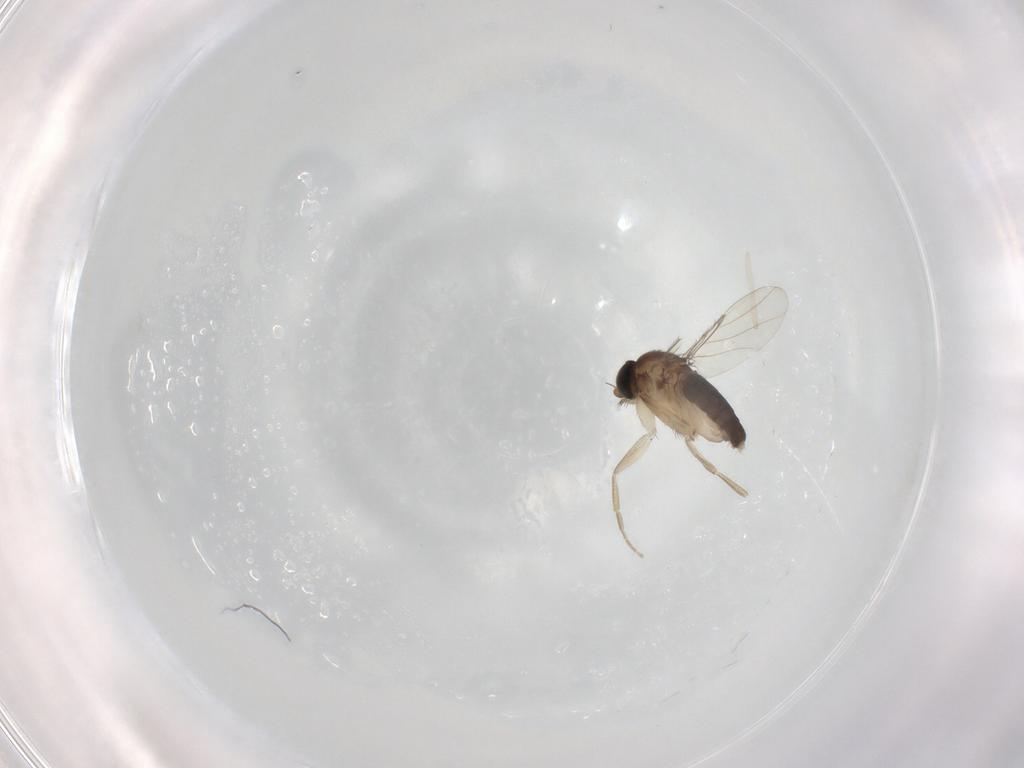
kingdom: Animalia
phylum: Arthropoda
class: Insecta
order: Diptera
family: Phoridae
